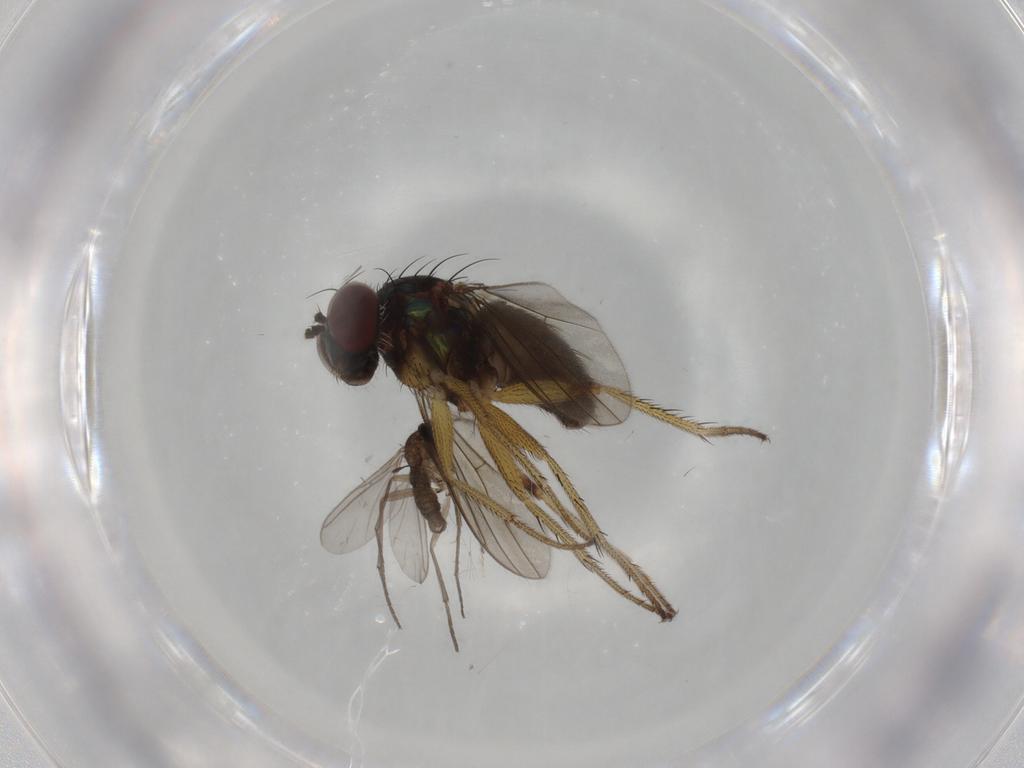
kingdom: Animalia
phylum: Arthropoda
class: Insecta
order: Diptera
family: Dolichopodidae
